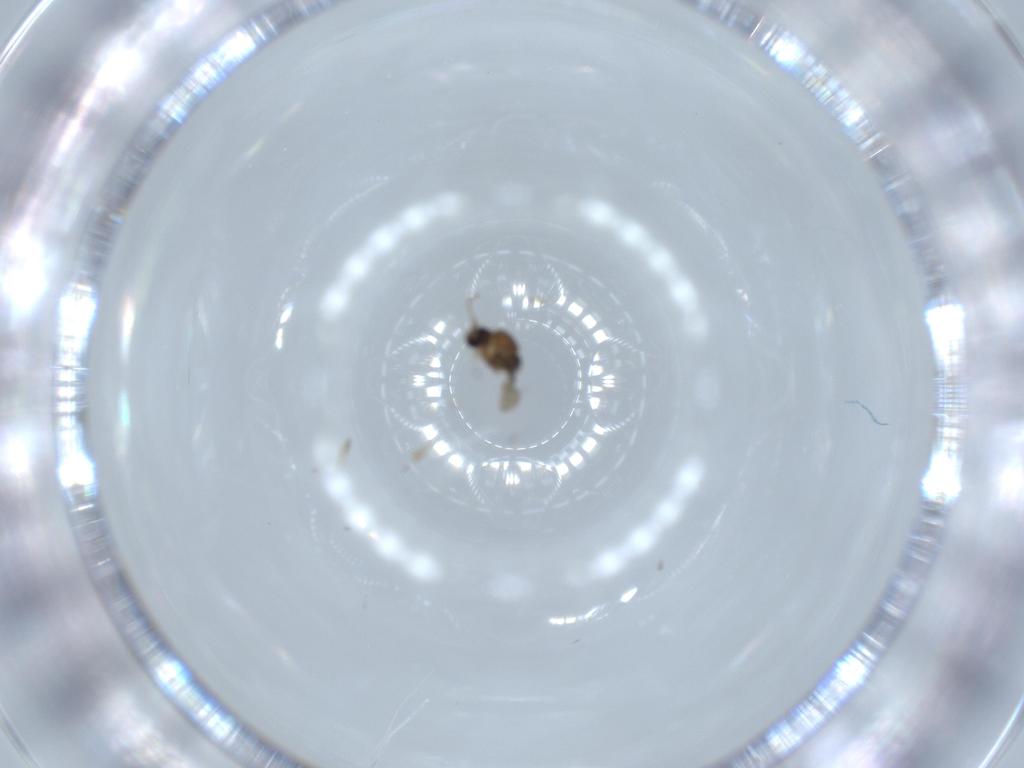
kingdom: Animalia
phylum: Arthropoda
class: Insecta
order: Diptera
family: Cecidomyiidae
